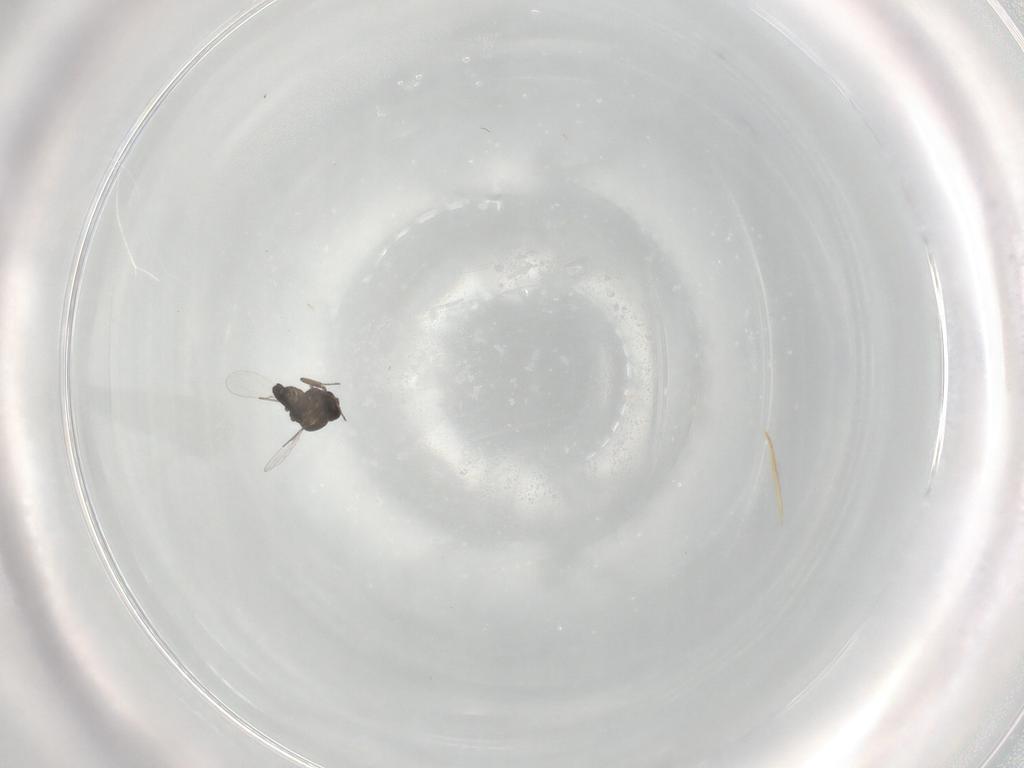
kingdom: Animalia
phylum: Arthropoda
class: Insecta
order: Diptera
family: Ceratopogonidae
